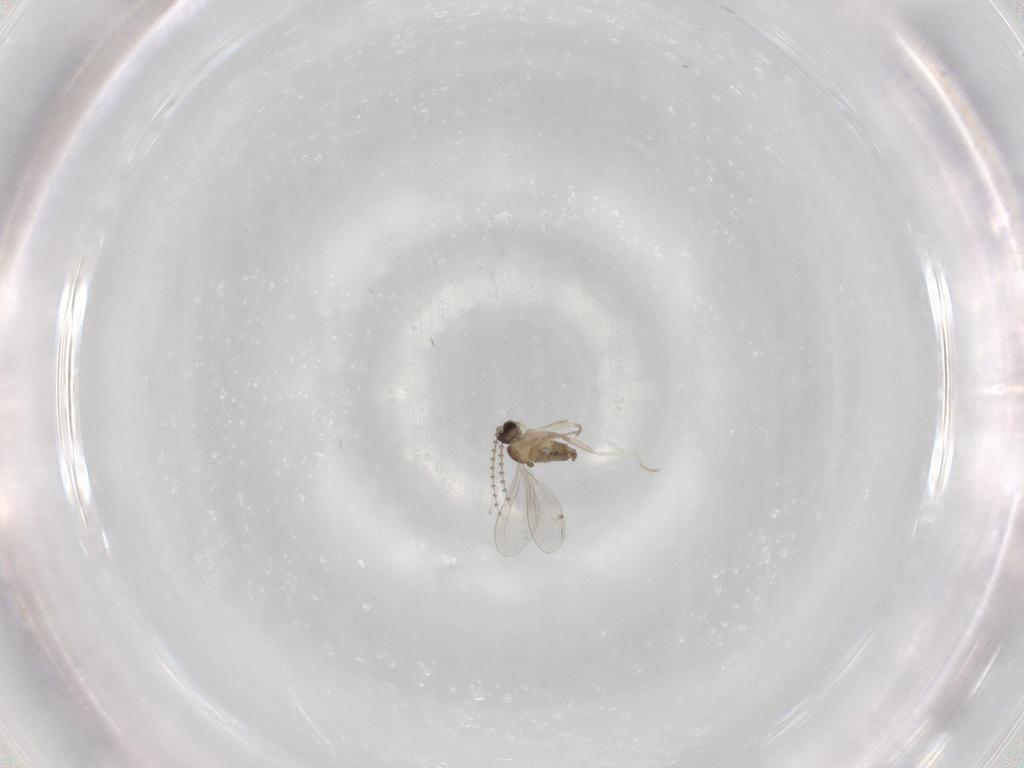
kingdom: Animalia
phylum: Arthropoda
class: Insecta
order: Diptera
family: Cecidomyiidae
